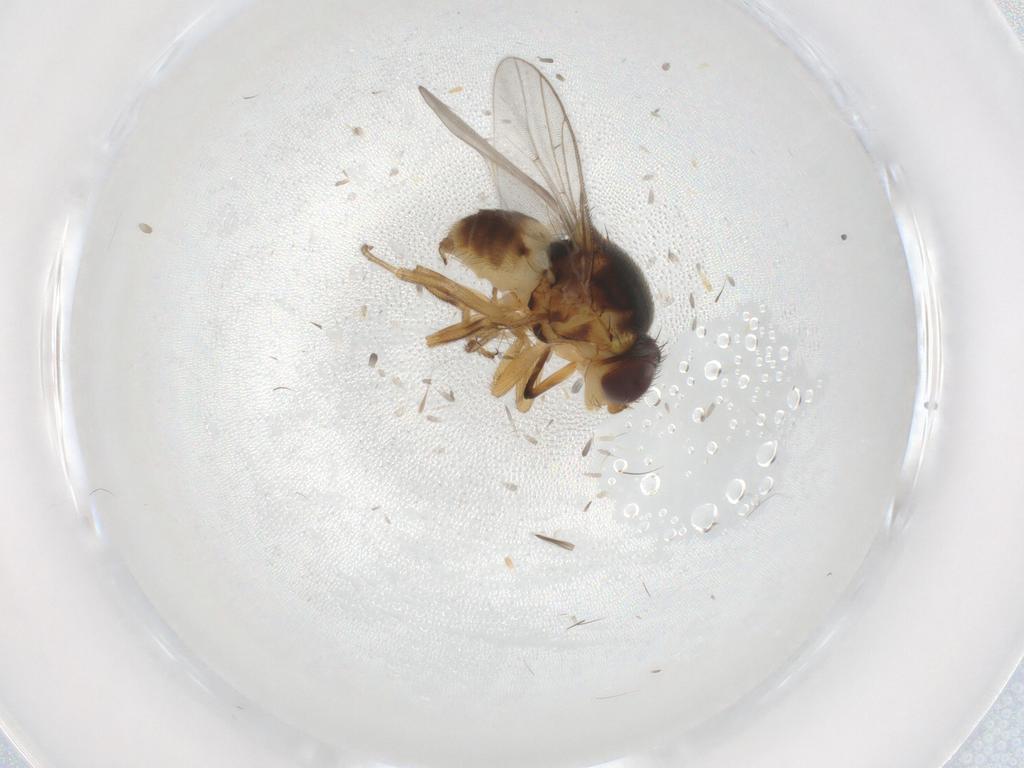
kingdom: Animalia
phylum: Arthropoda
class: Insecta
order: Diptera
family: Chloropidae
